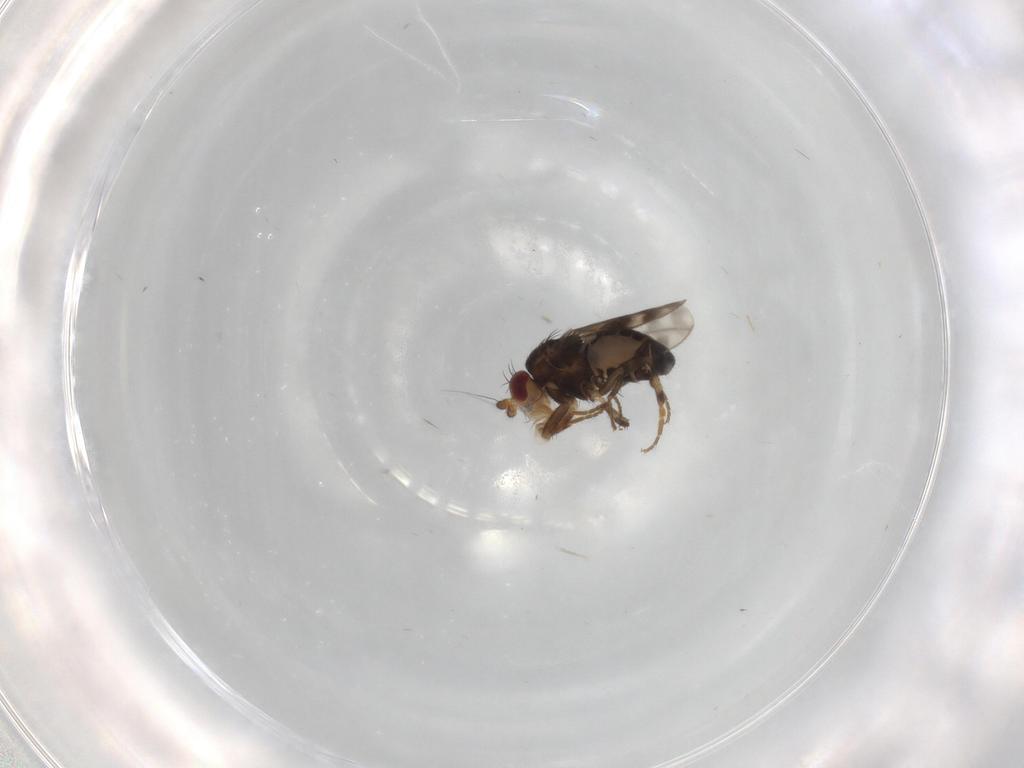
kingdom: Animalia
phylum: Arthropoda
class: Insecta
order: Diptera
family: Sphaeroceridae
